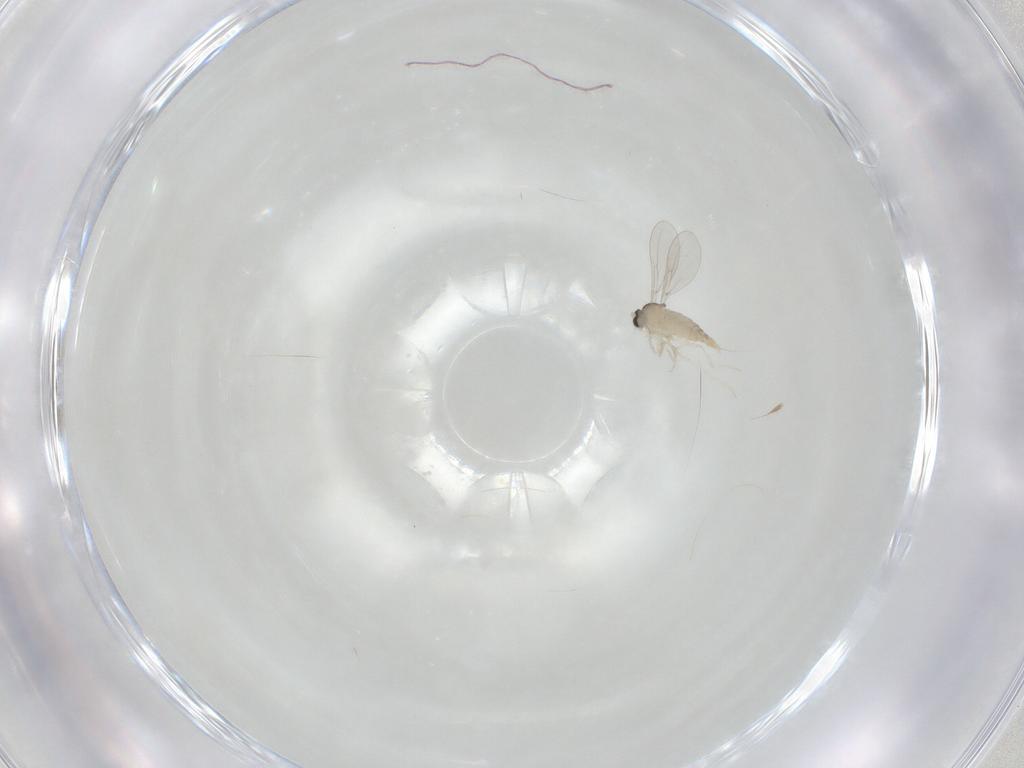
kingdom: Animalia
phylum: Arthropoda
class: Insecta
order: Diptera
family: Cecidomyiidae
